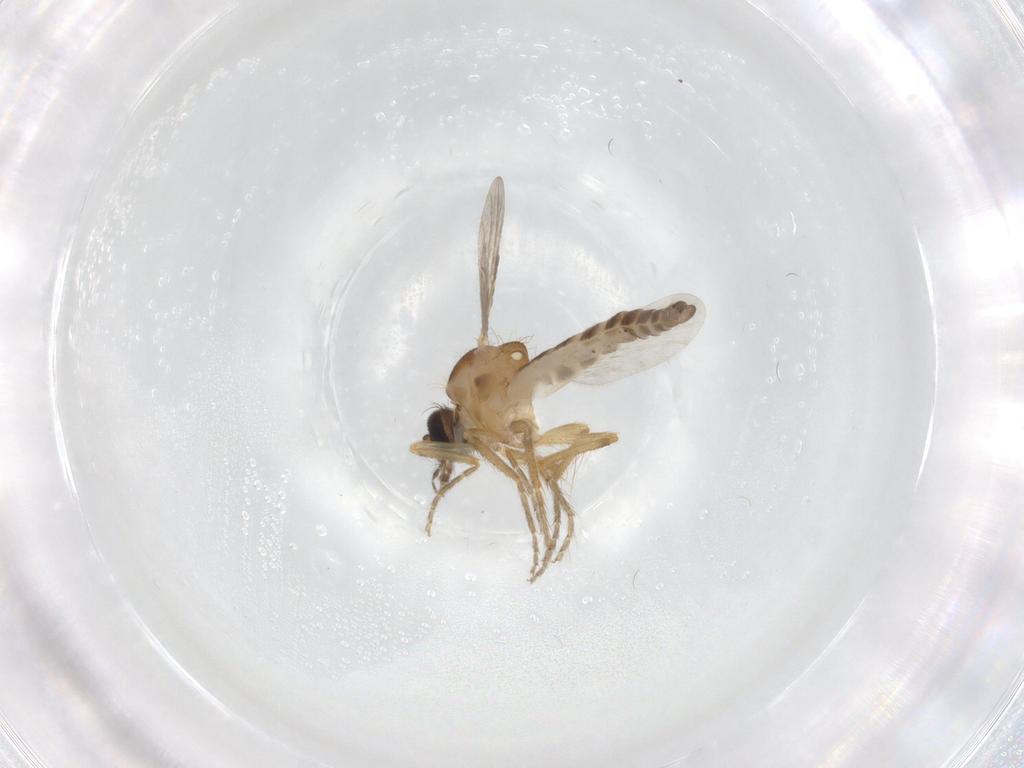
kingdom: Animalia
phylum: Arthropoda
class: Insecta
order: Diptera
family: Ceratopogonidae
